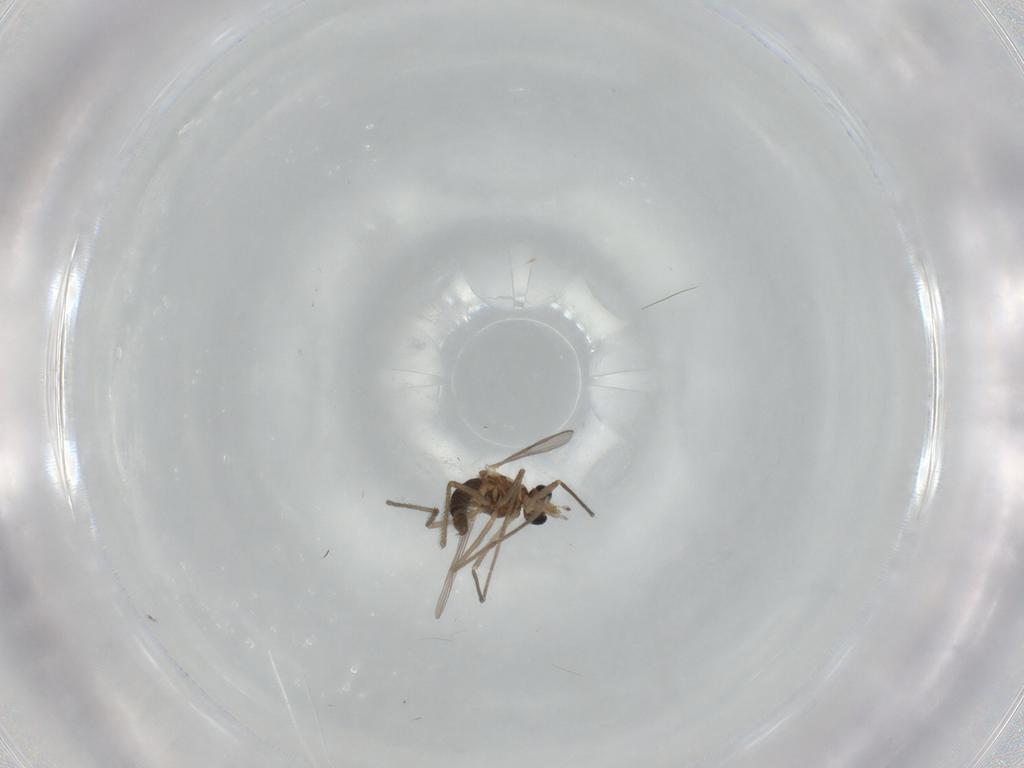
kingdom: Animalia
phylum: Arthropoda
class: Insecta
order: Diptera
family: Chironomidae
